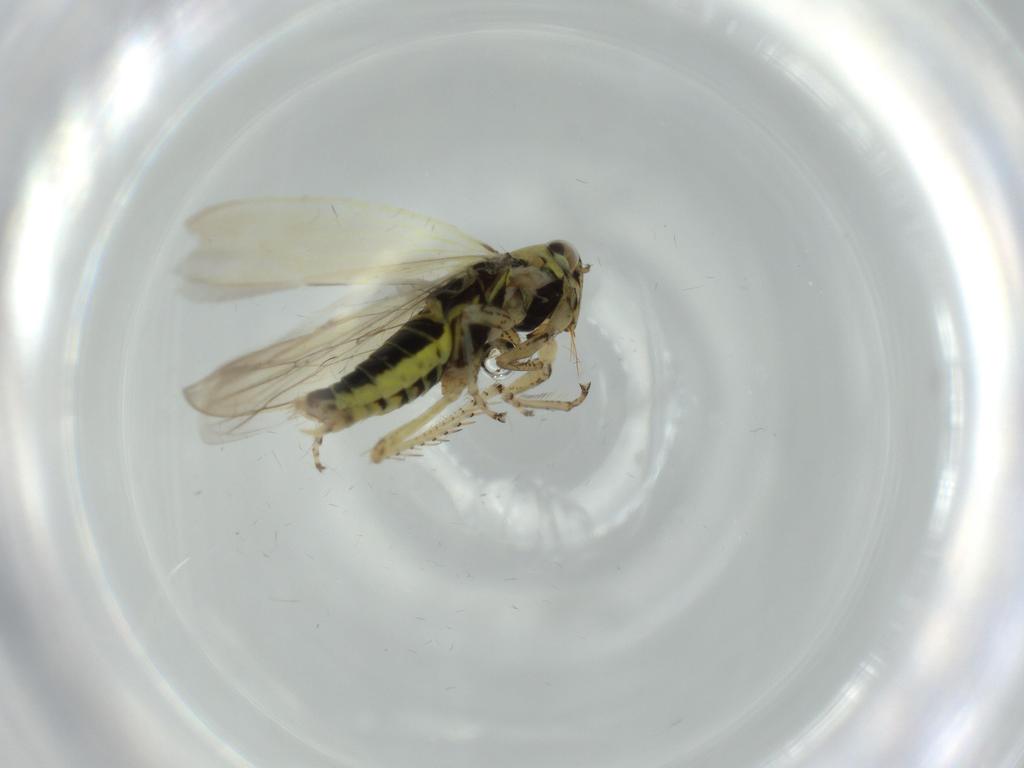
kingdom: Animalia
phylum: Arthropoda
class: Insecta
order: Hemiptera
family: Cicadellidae
